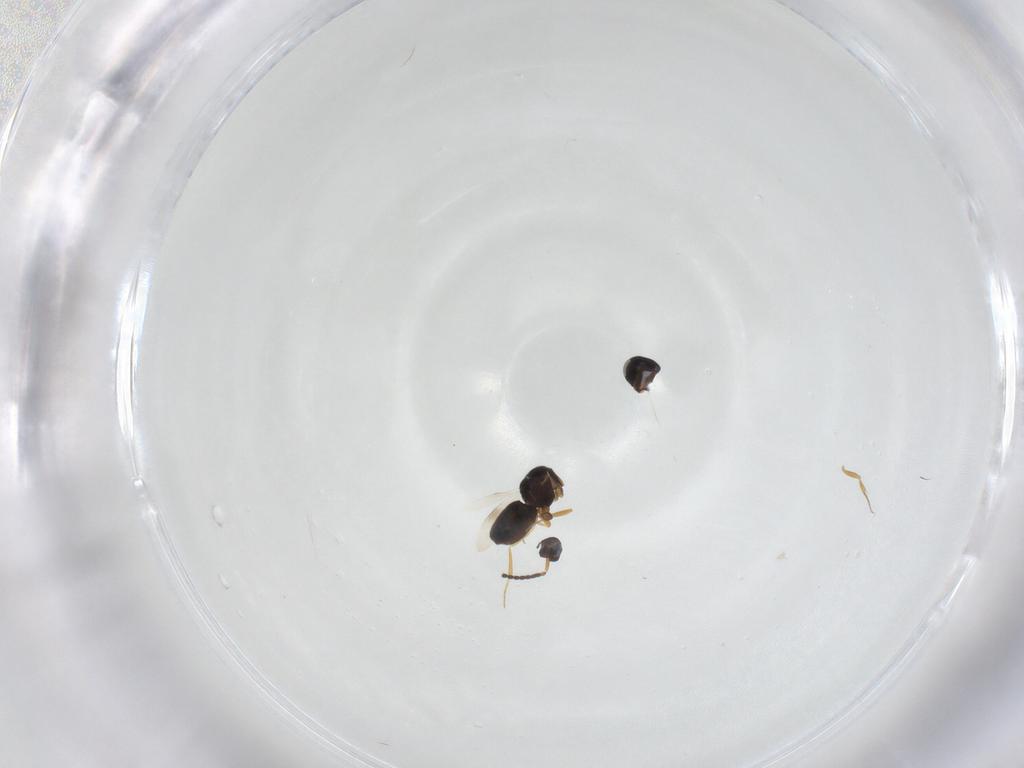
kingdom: Animalia
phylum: Arthropoda
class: Insecta
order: Hymenoptera
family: Scelionidae
